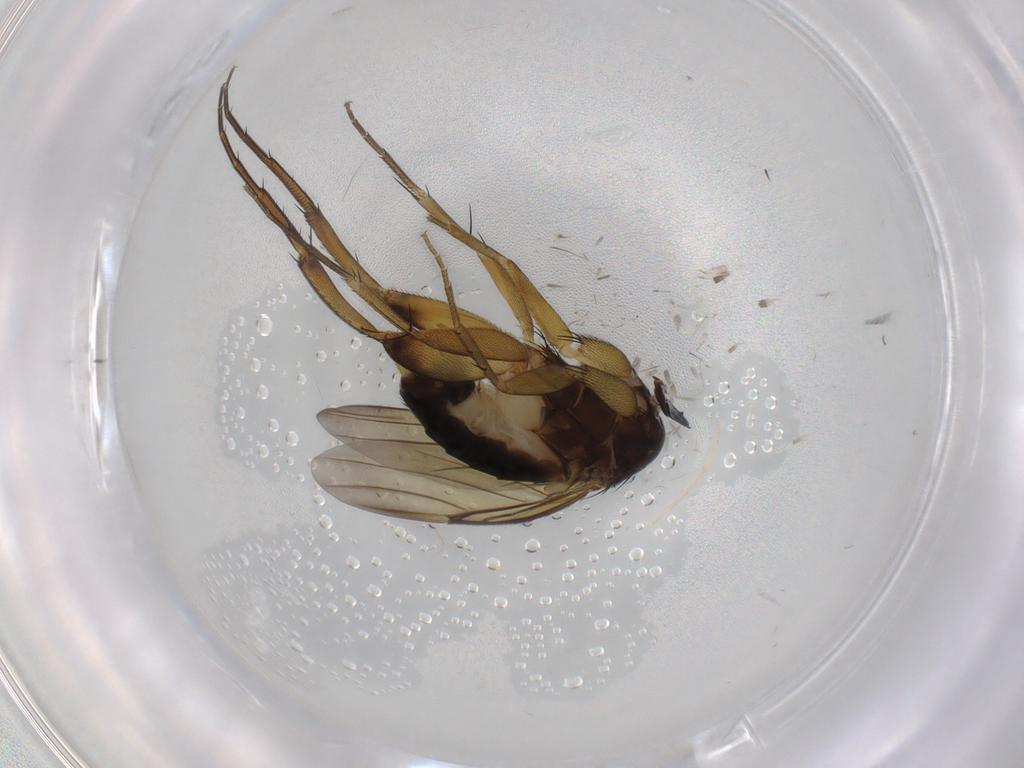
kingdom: Animalia
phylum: Arthropoda
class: Insecta
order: Diptera
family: Phoridae
